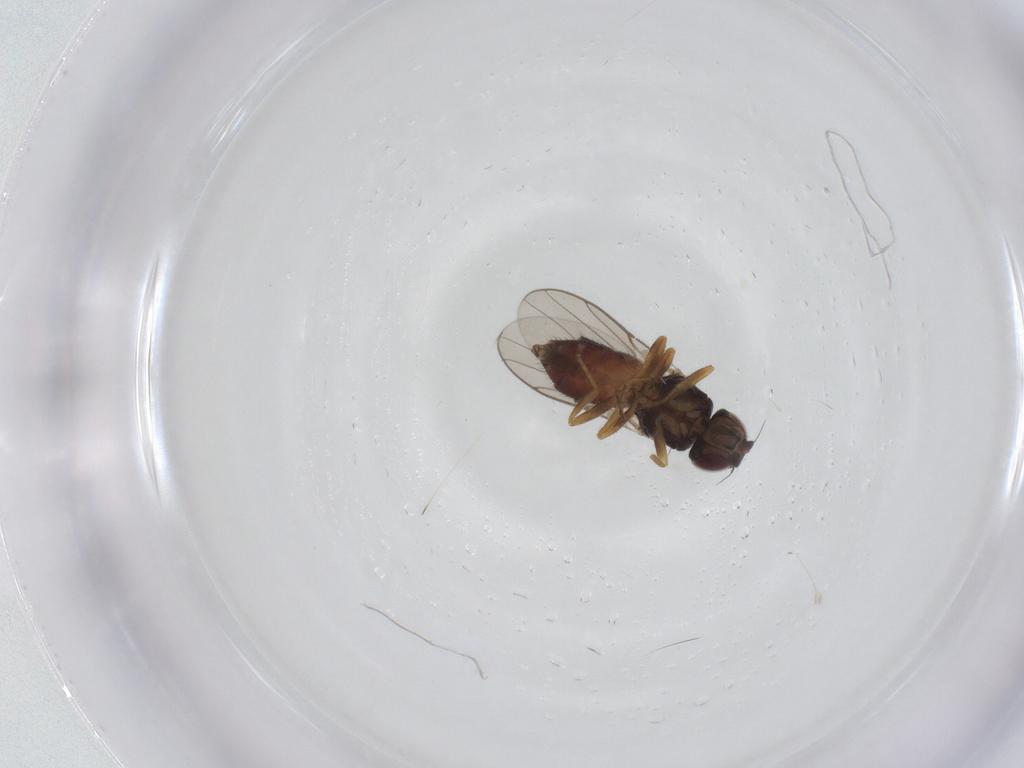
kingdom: Animalia
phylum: Arthropoda
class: Insecta
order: Diptera
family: Chloropidae
